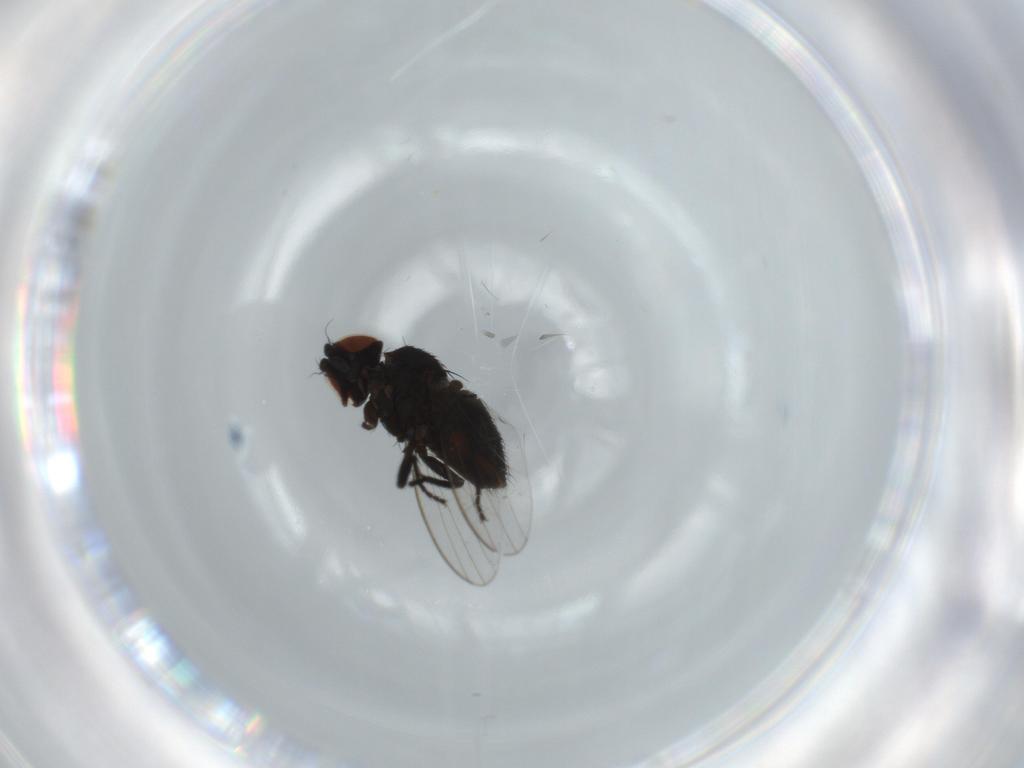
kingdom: Animalia
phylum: Arthropoda
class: Insecta
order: Diptera
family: Milichiidae
